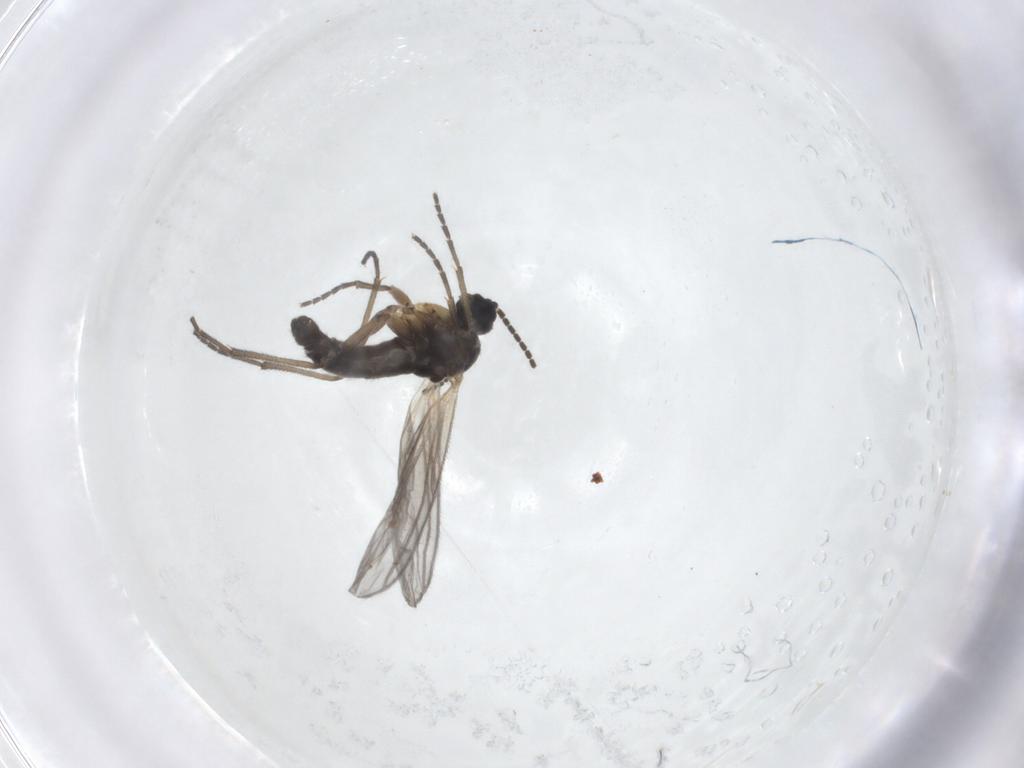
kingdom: Animalia
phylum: Arthropoda
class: Insecta
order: Diptera
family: Sciaridae
